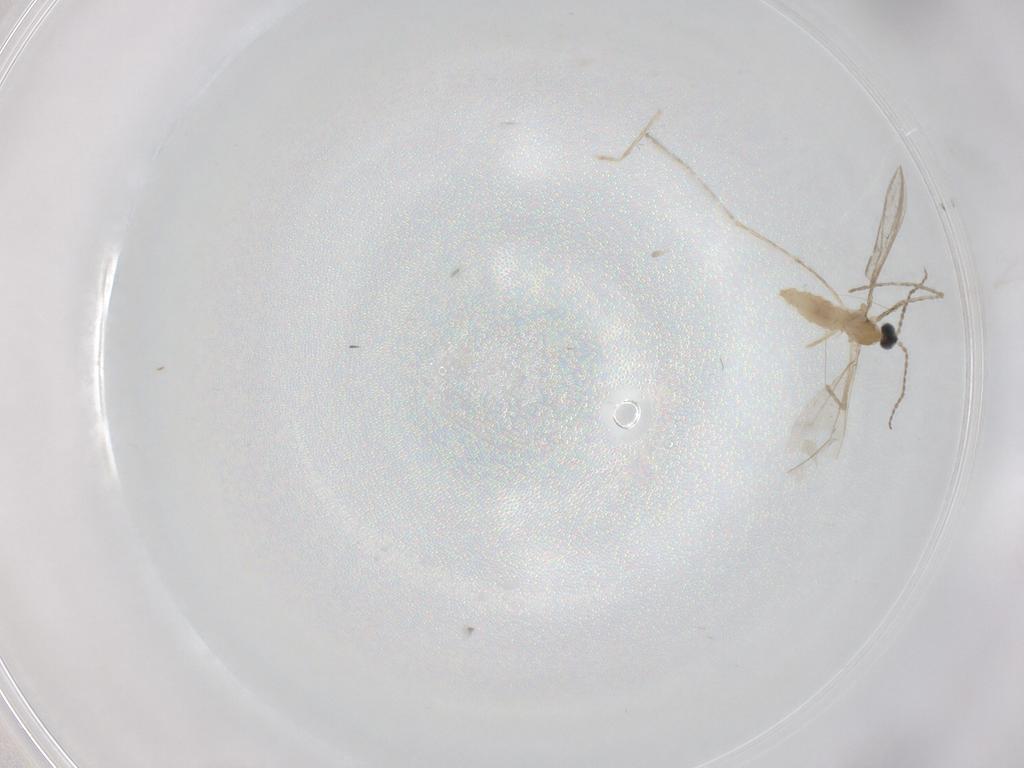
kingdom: Animalia
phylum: Arthropoda
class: Insecta
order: Diptera
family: Cecidomyiidae
